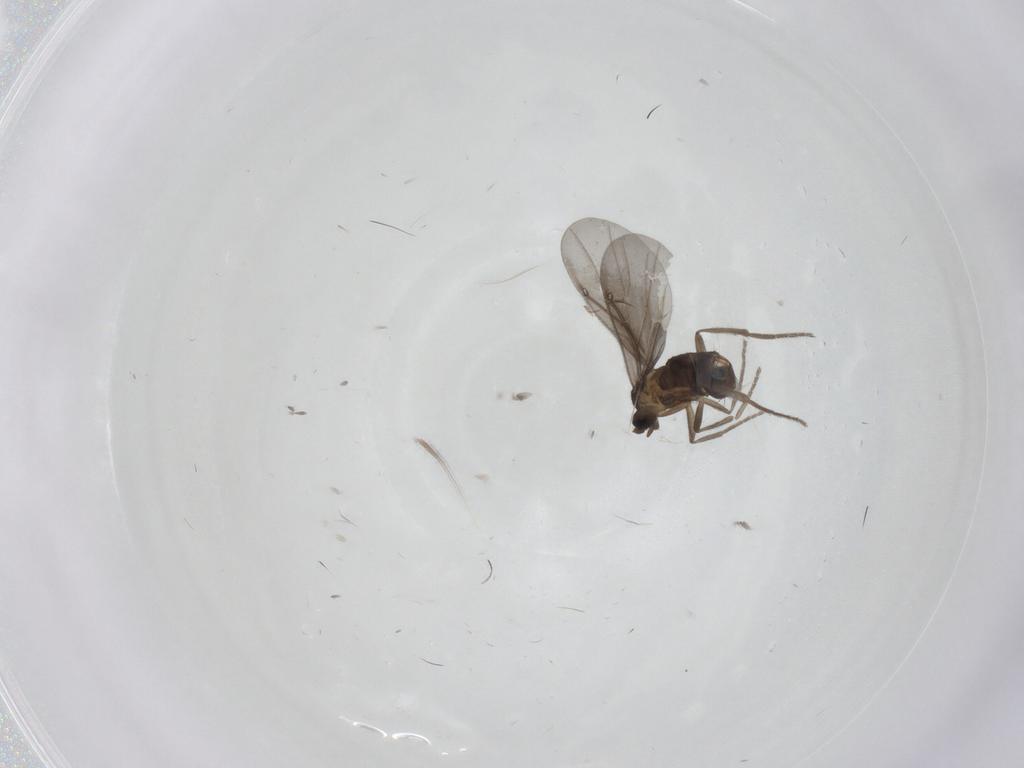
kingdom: Animalia
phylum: Arthropoda
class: Insecta
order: Diptera
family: Phoridae
